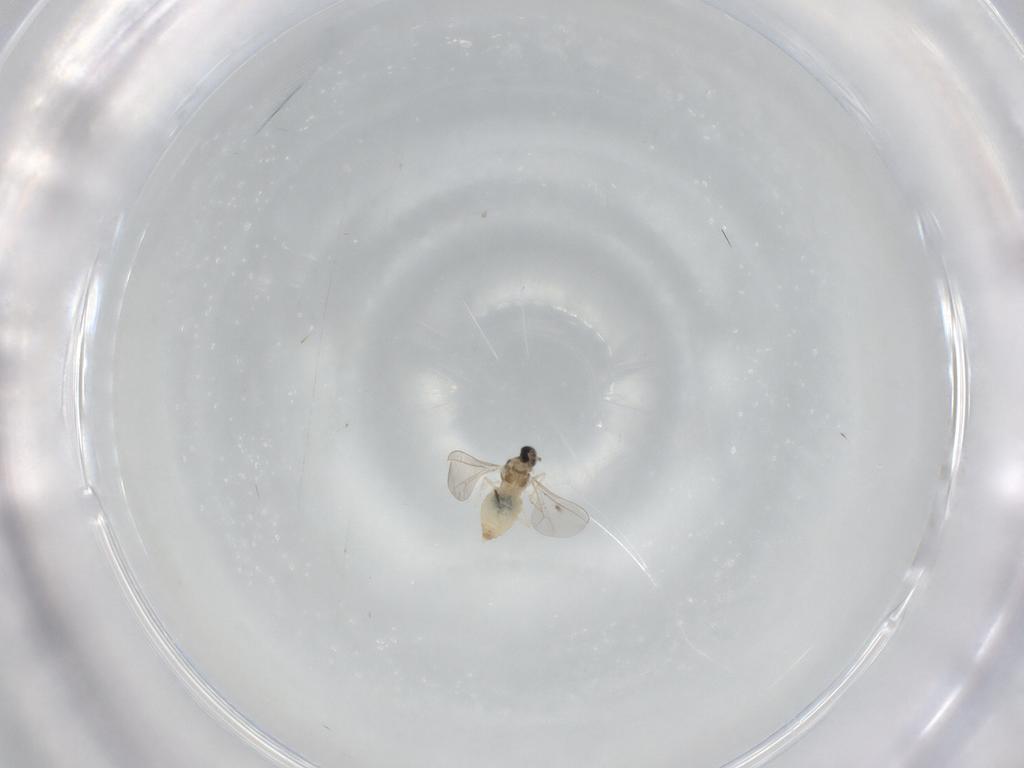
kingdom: Animalia
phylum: Arthropoda
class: Insecta
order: Diptera
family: Cecidomyiidae
